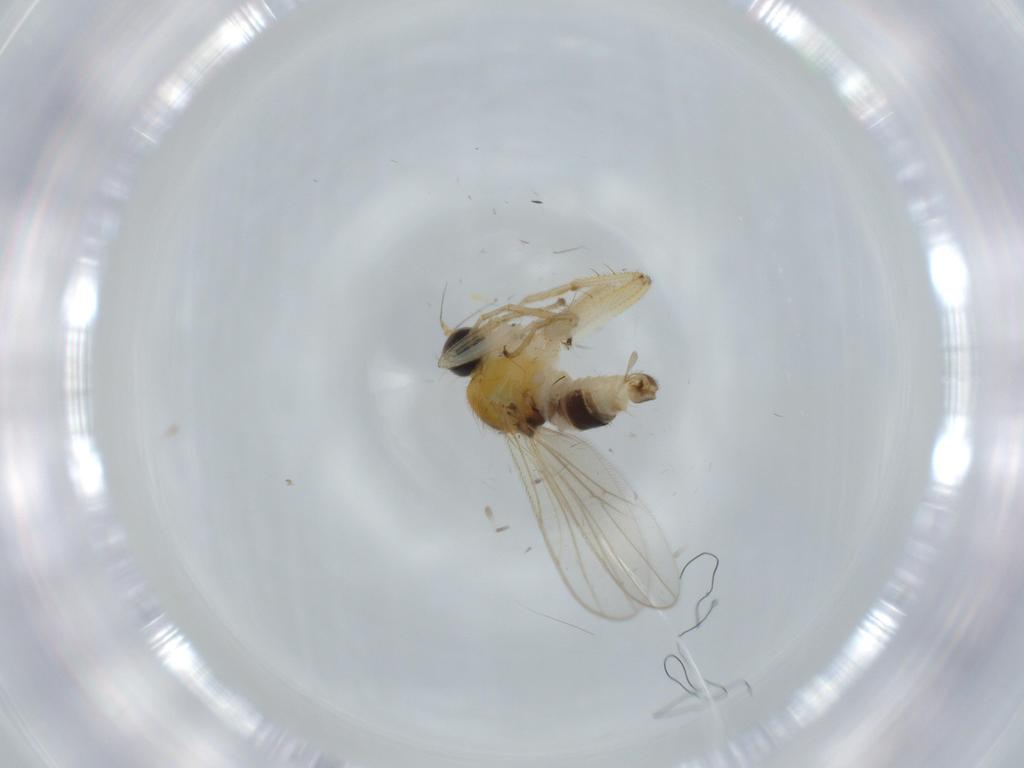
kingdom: Animalia
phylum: Arthropoda
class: Insecta
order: Diptera
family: Hybotidae
